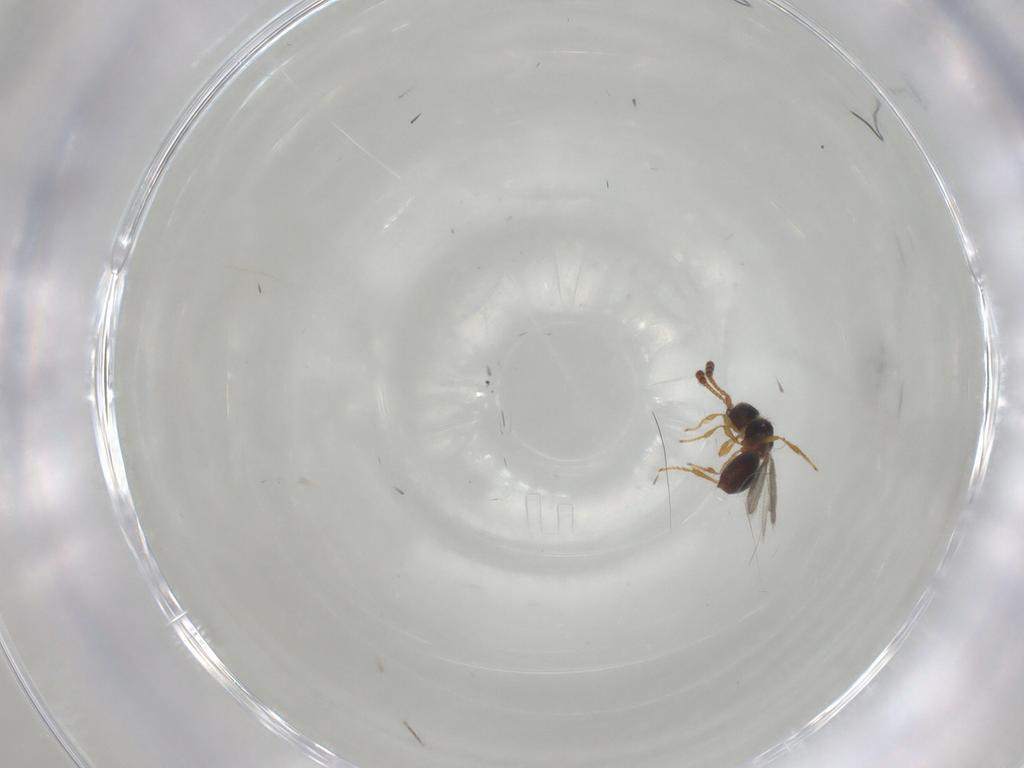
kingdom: Animalia
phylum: Arthropoda
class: Insecta
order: Hymenoptera
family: Diapriidae
